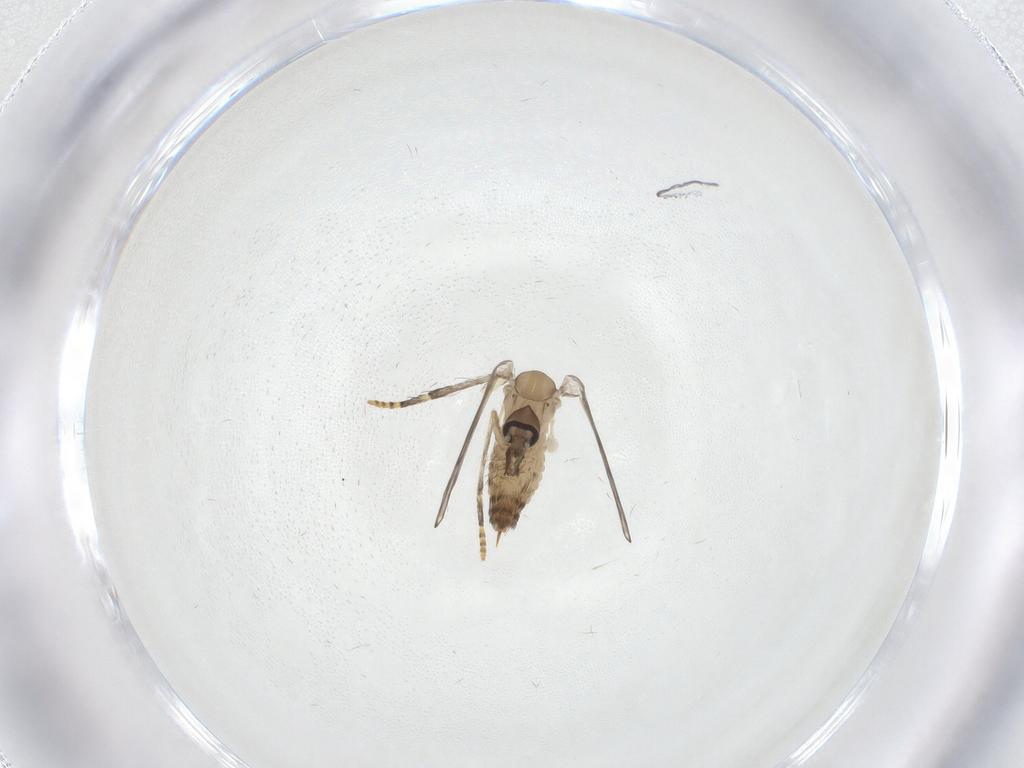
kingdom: Animalia
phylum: Arthropoda
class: Insecta
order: Diptera
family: Psychodidae
